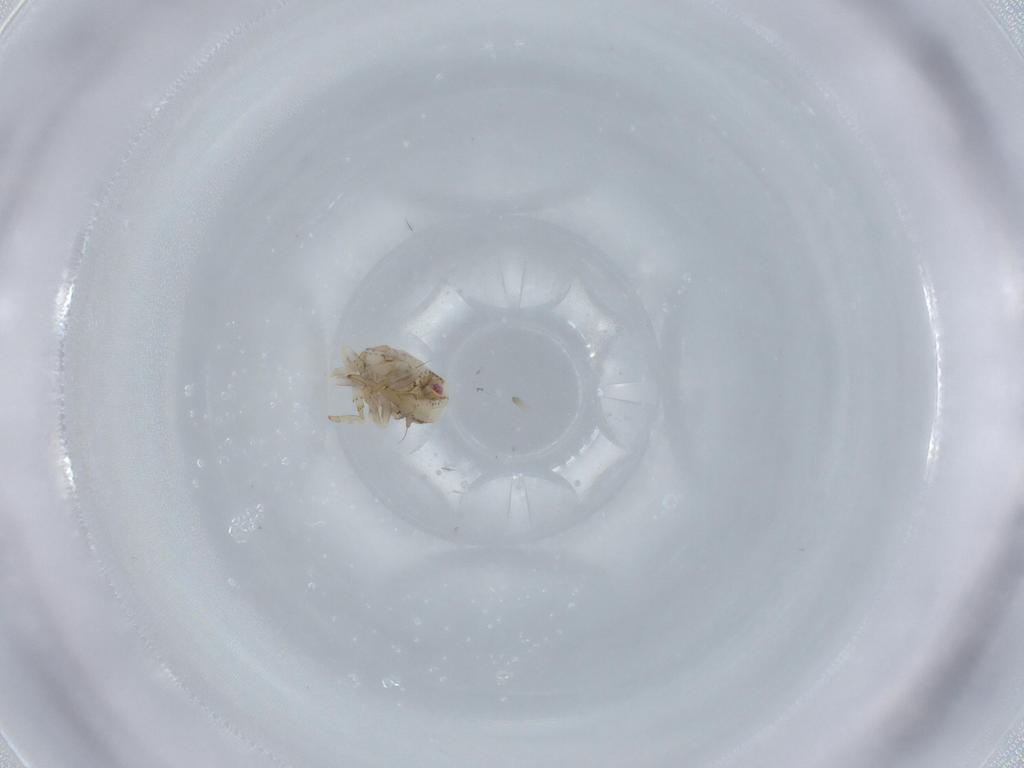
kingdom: Animalia
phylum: Arthropoda
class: Insecta
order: Hemiptera
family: Acanaloniidae
